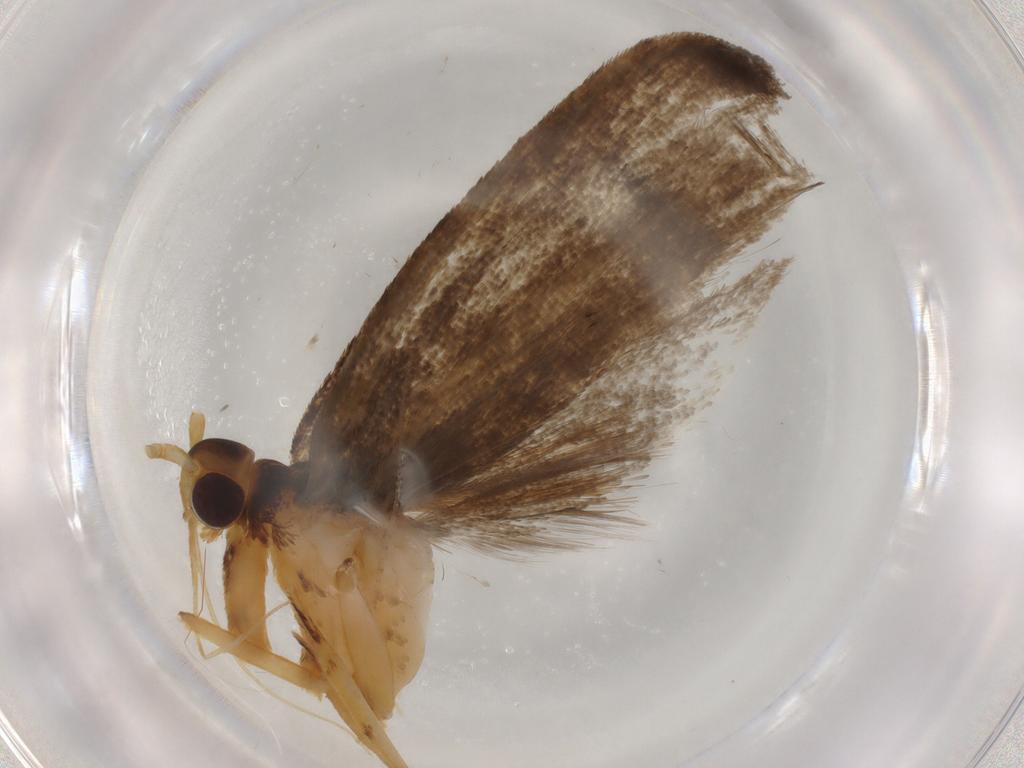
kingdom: Animalia
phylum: Arthropoda
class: Insecta
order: Lepidoptera
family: Lecithoceridae
